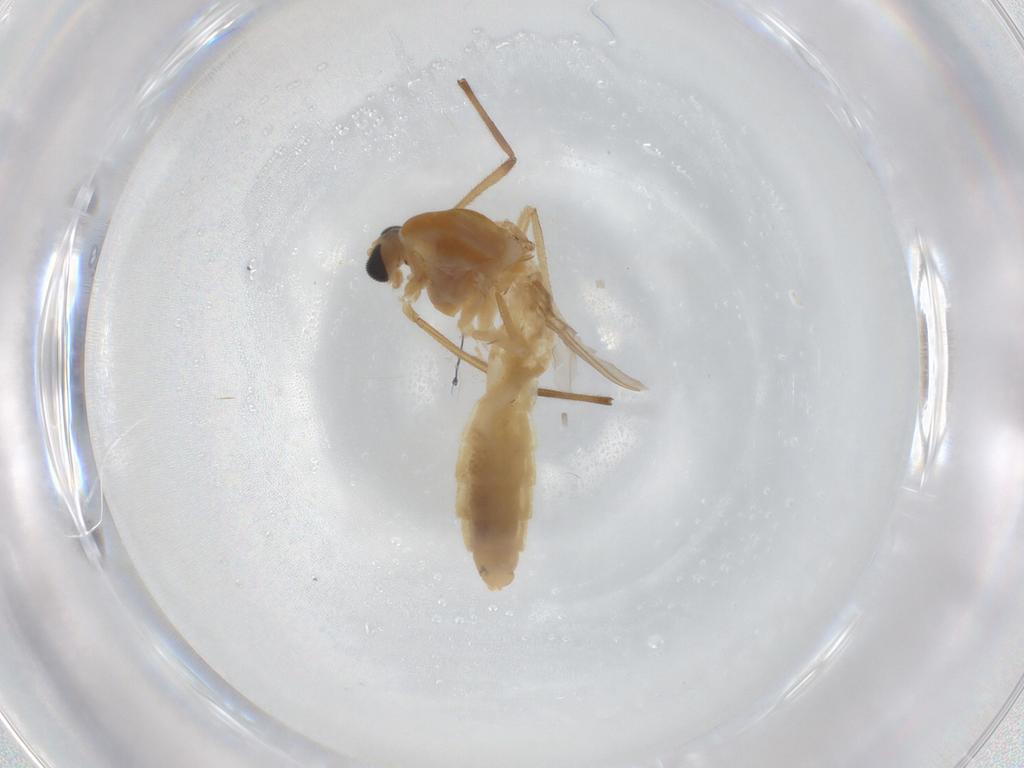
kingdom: Animalia
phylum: Arthropoda
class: Insecta
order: Diptera
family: Chironomidae
